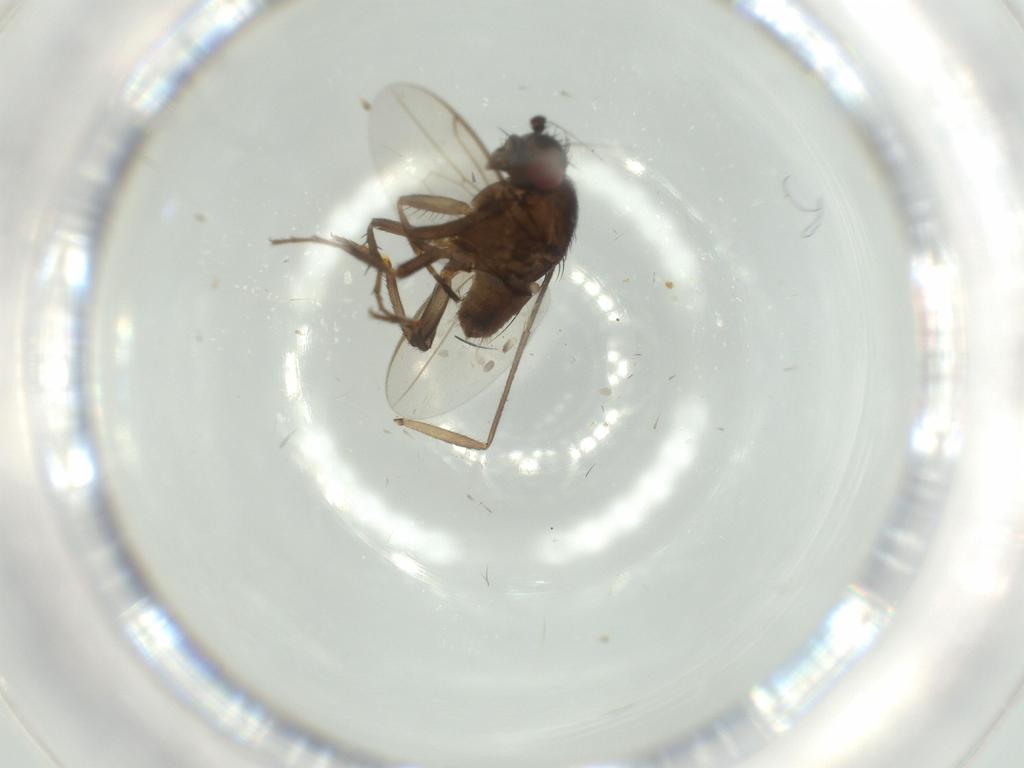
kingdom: Animalia
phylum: Arthropoda
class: Insecta
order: Diptera
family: Cecidomyiidae
